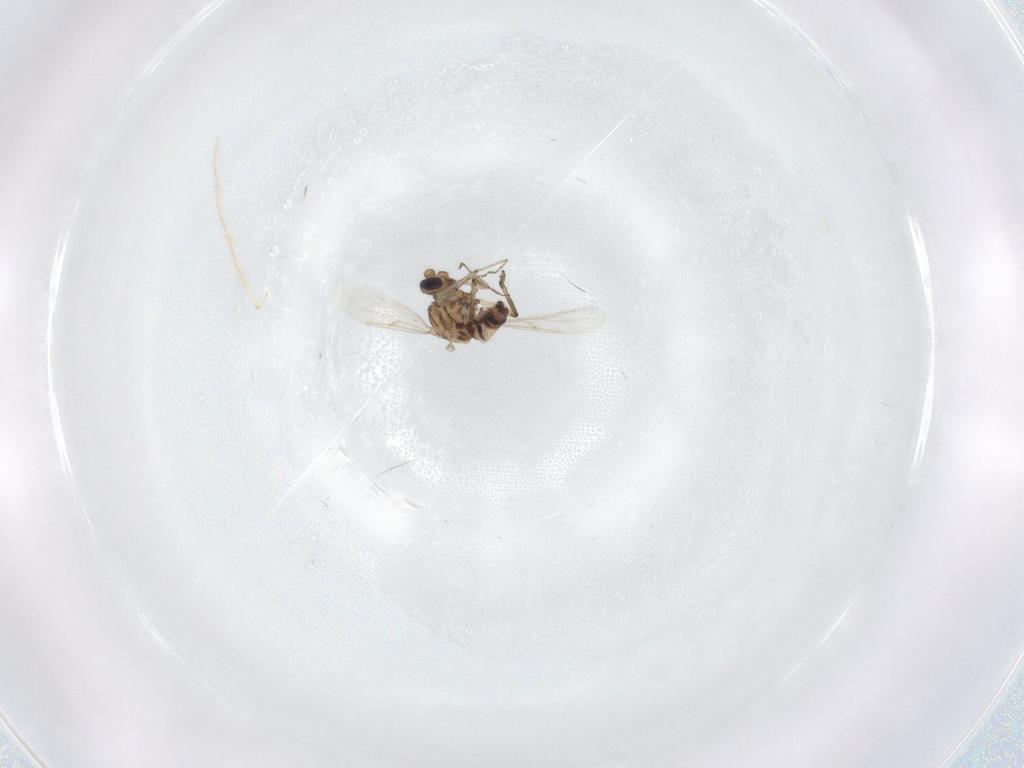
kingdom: Animalia
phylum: Arthropoda
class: Insecta
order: Diptera
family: Ceratopogonidae
